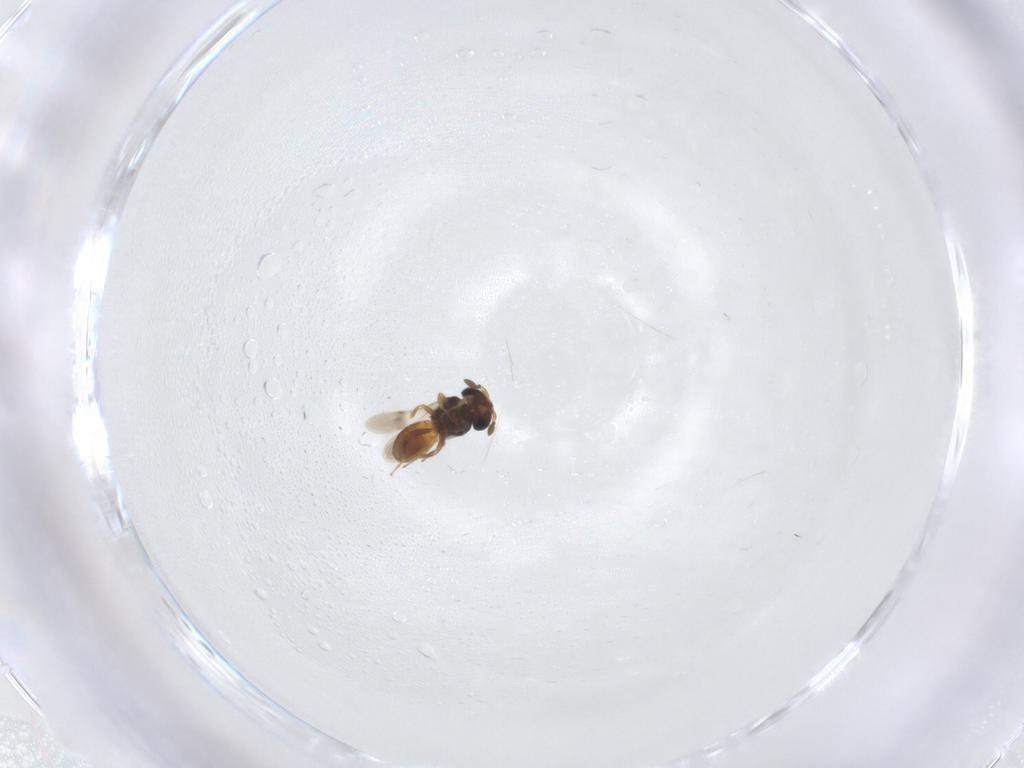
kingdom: Animalia
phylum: Arthropoda
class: Insecta
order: Hymenoptera
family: Scelionidae
